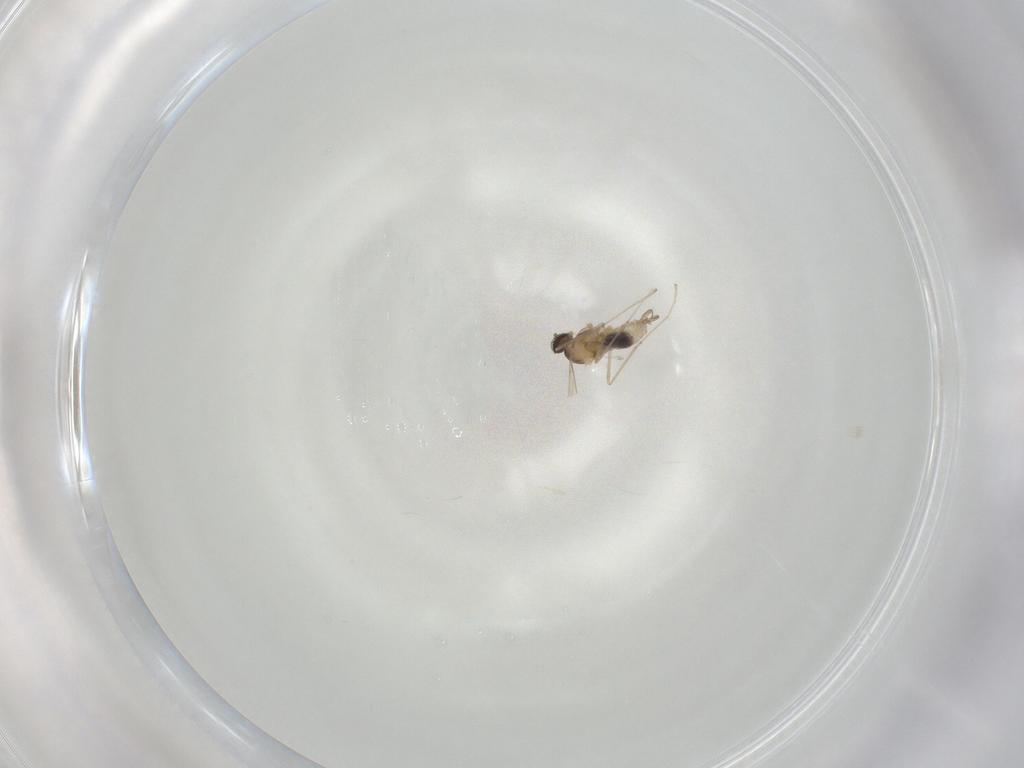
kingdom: Animalia
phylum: Arthropoda
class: Insecta
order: Diptera
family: Cecidomyiidae
